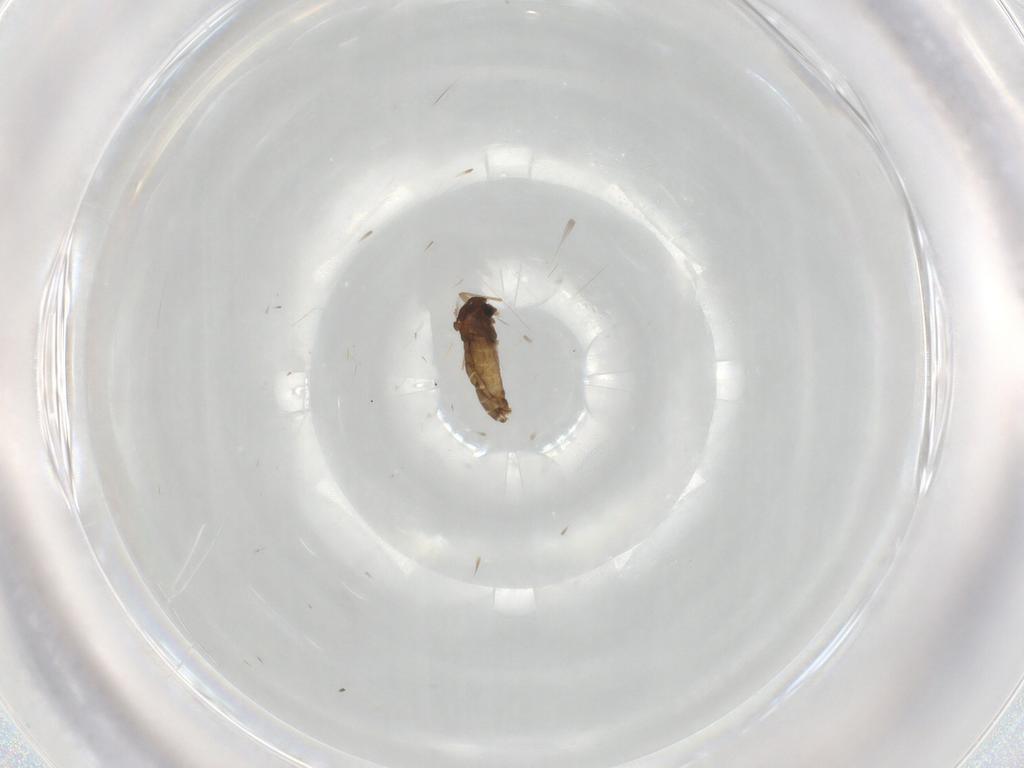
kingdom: Animalia
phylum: Arthropoda
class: Insecta
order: Diptera
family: Chironomidae
